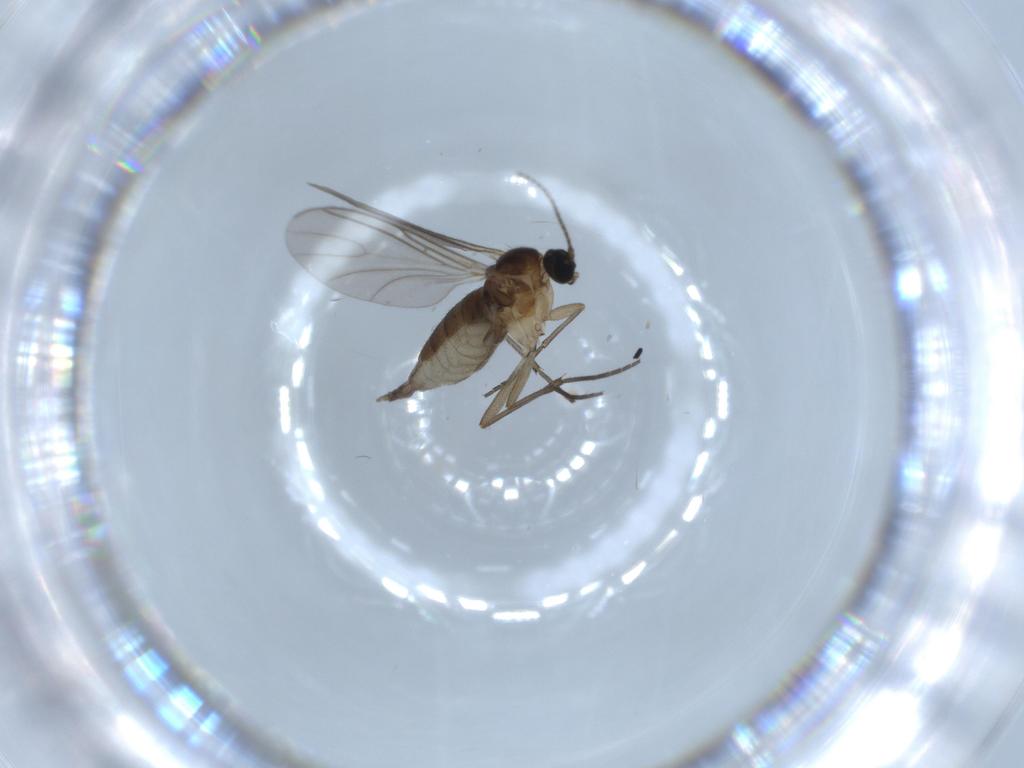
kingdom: Animalia
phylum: Arthropoda
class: Insecta
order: Diptera
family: Sciaridae
